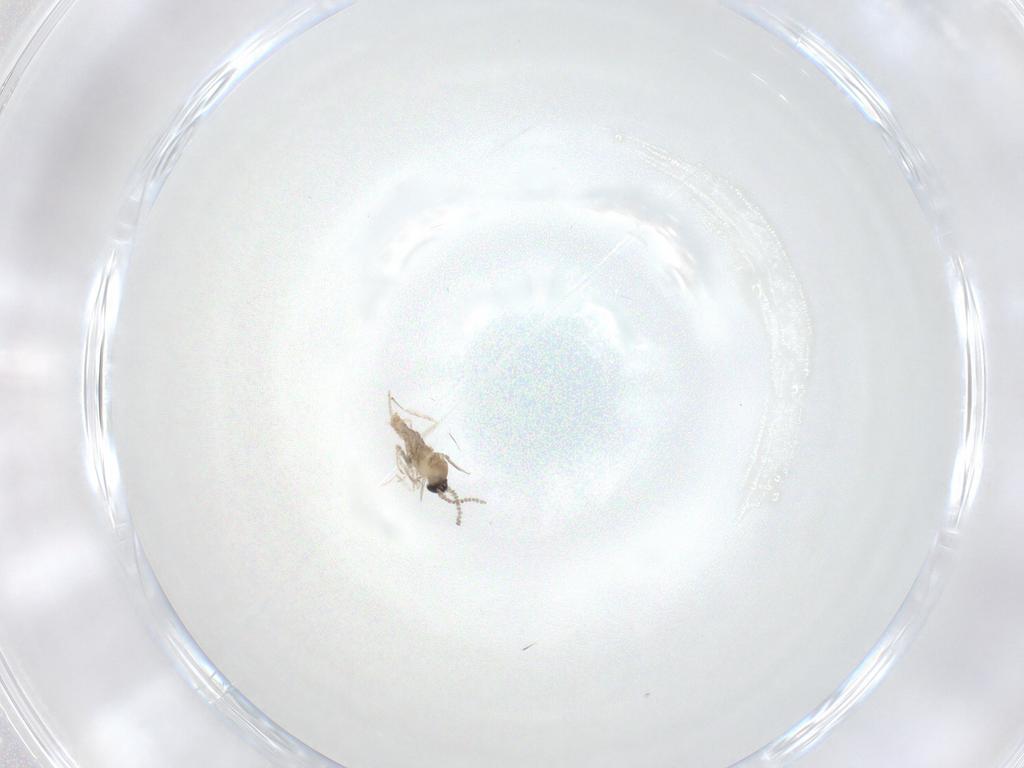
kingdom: Animalia
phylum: Arthropoda
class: Insecta
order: Diptera
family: Cecidomyiidae
